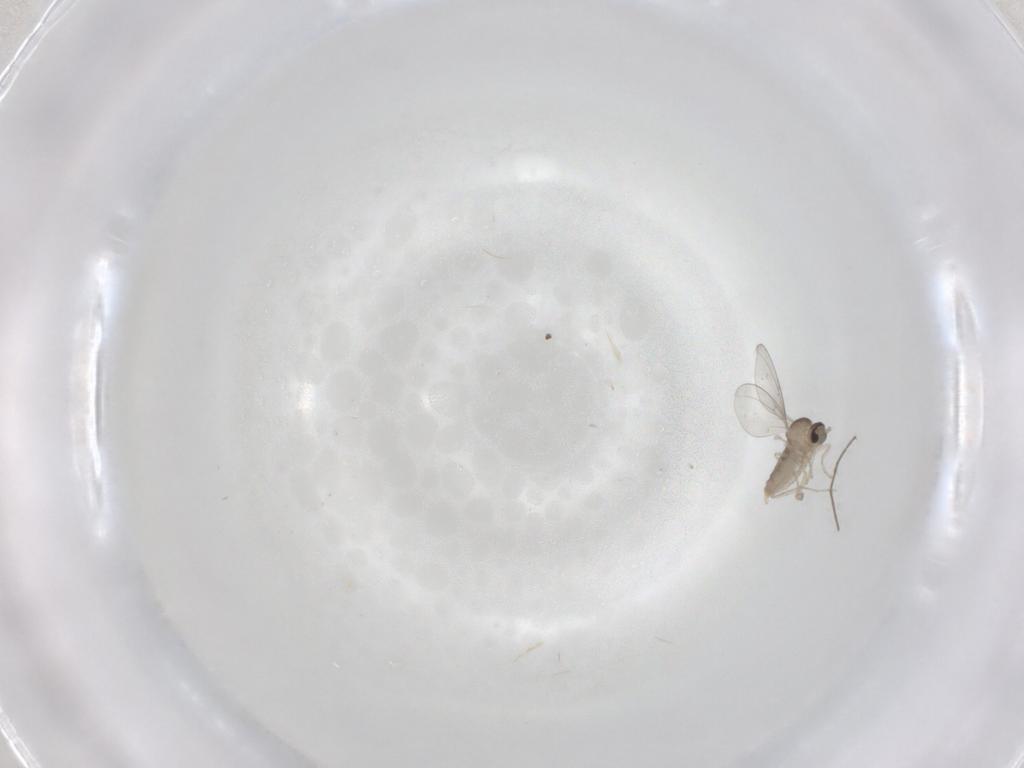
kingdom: Animalia
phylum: Arthropoda
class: Insecta
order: Diptera
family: Cecidomyiidae
